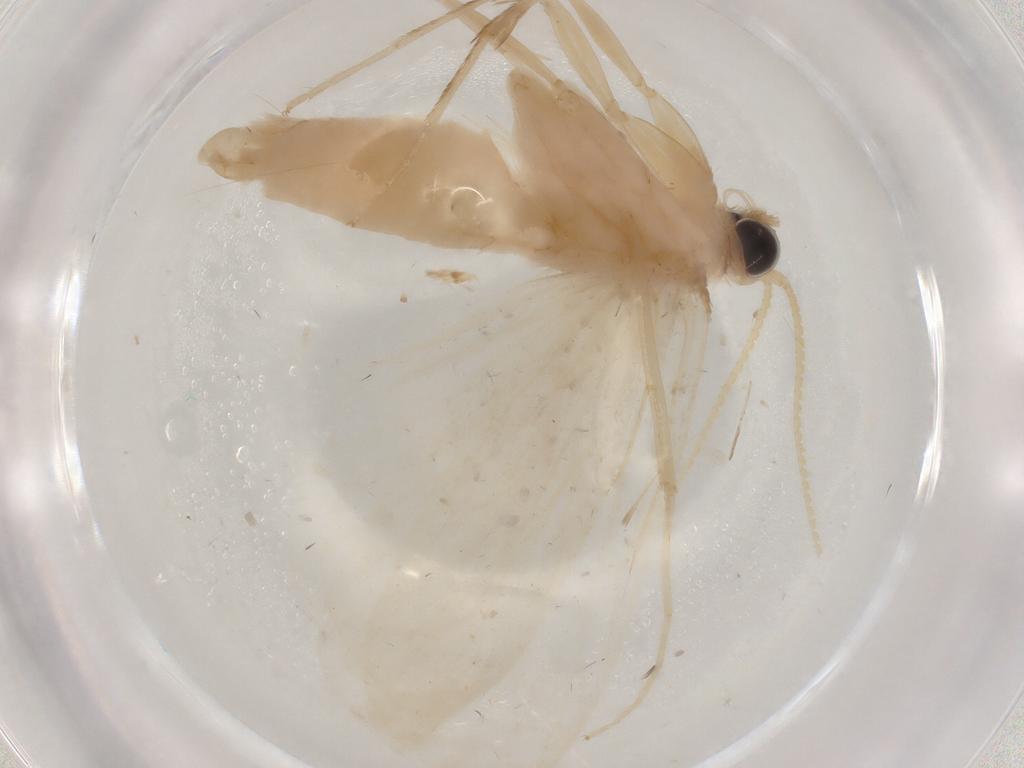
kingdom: Animalia
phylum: Arthropoda
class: Insecta
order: Lepidoptera
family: Crambidae
